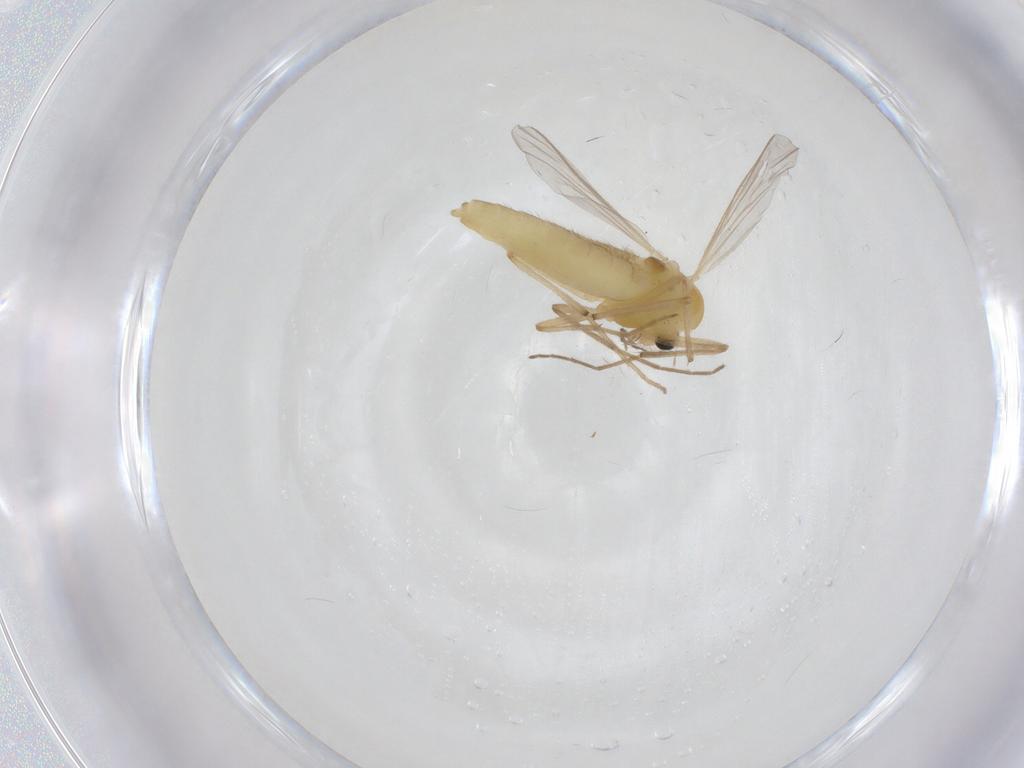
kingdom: Animalia
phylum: Arthropoda
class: Insecta
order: Diptera
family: Chironomidae
